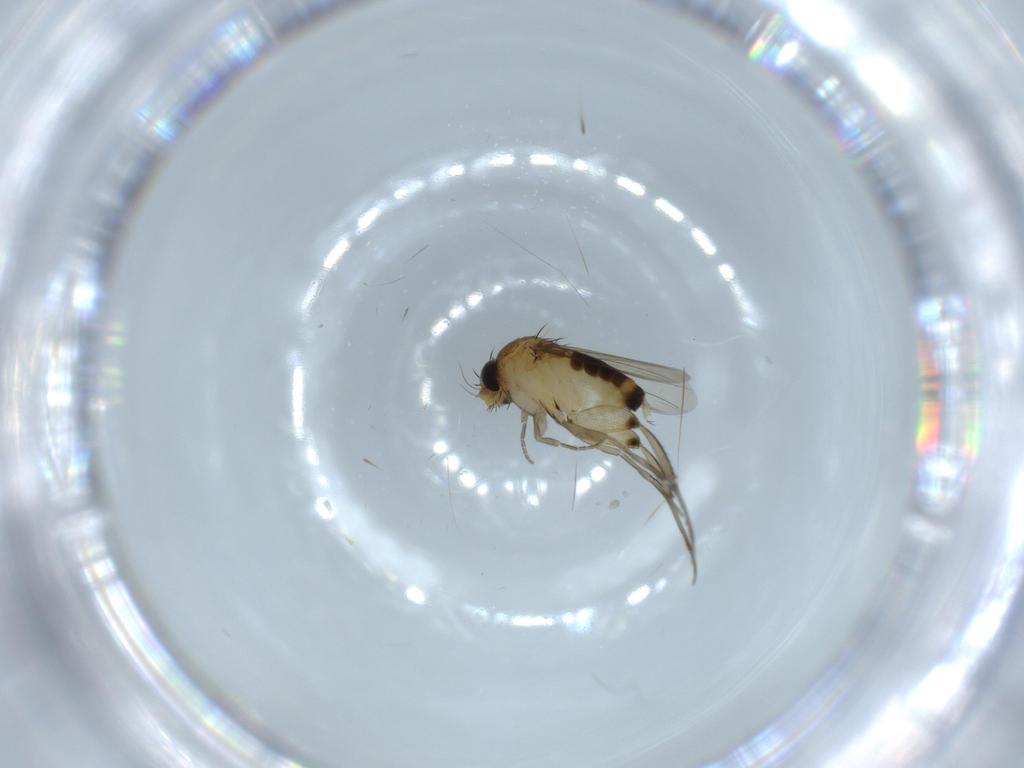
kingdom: Animalia
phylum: Arthropoda
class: Insecta
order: Diptera
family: Phoridae
